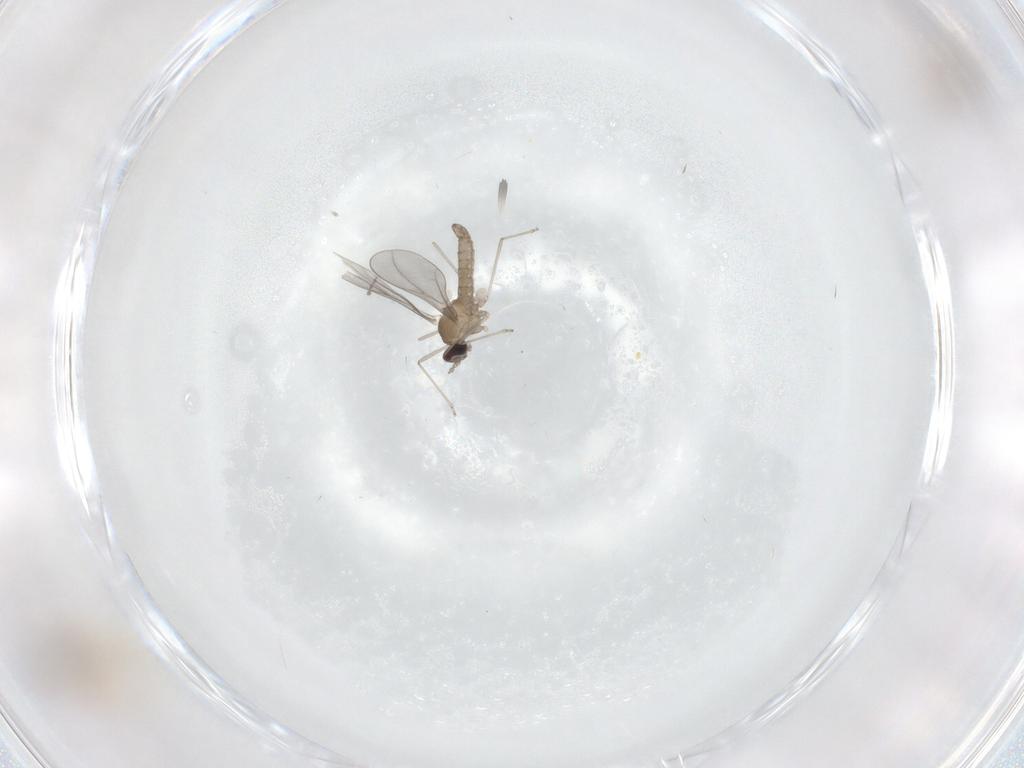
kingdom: Animalia
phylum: Arthropoda
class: Insecta
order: Diptera
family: Cecidomyiidae
